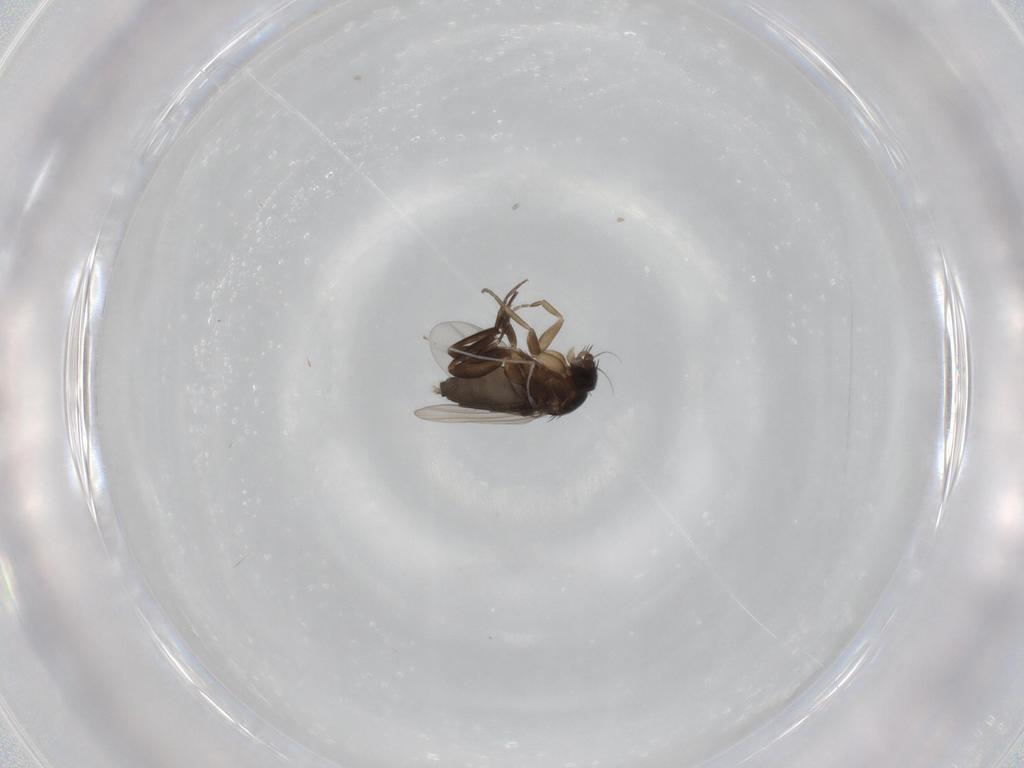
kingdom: Animalia
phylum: Arthropoda
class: Insecta
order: Diptera
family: Phoridae
